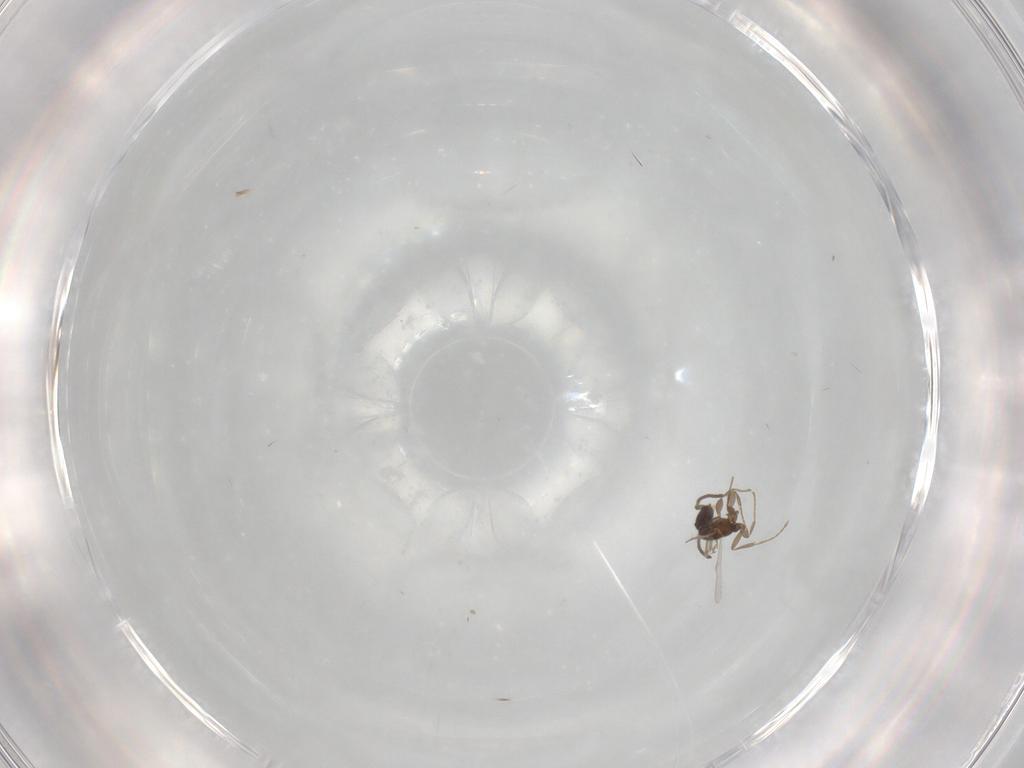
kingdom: Animalia
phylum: Arthropoda
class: Insecta
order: Hymenoptera
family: Formicidae
